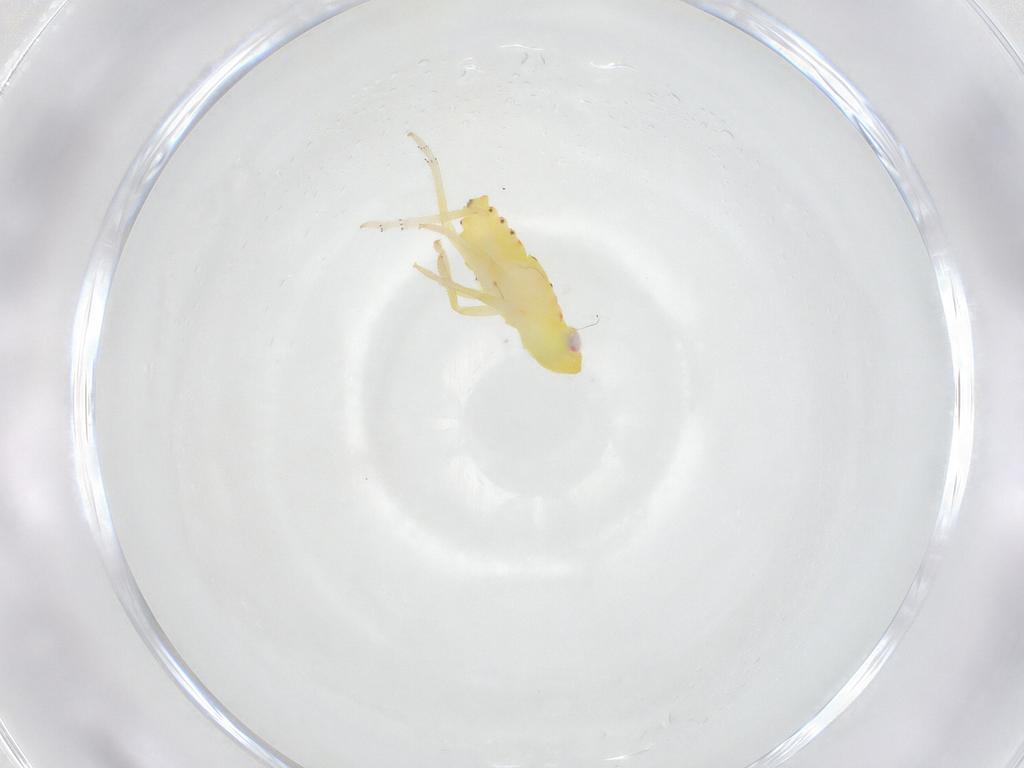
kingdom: Animalia
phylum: Arthropoda
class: Insecta
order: Hemiptera
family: Tropiduchidae
